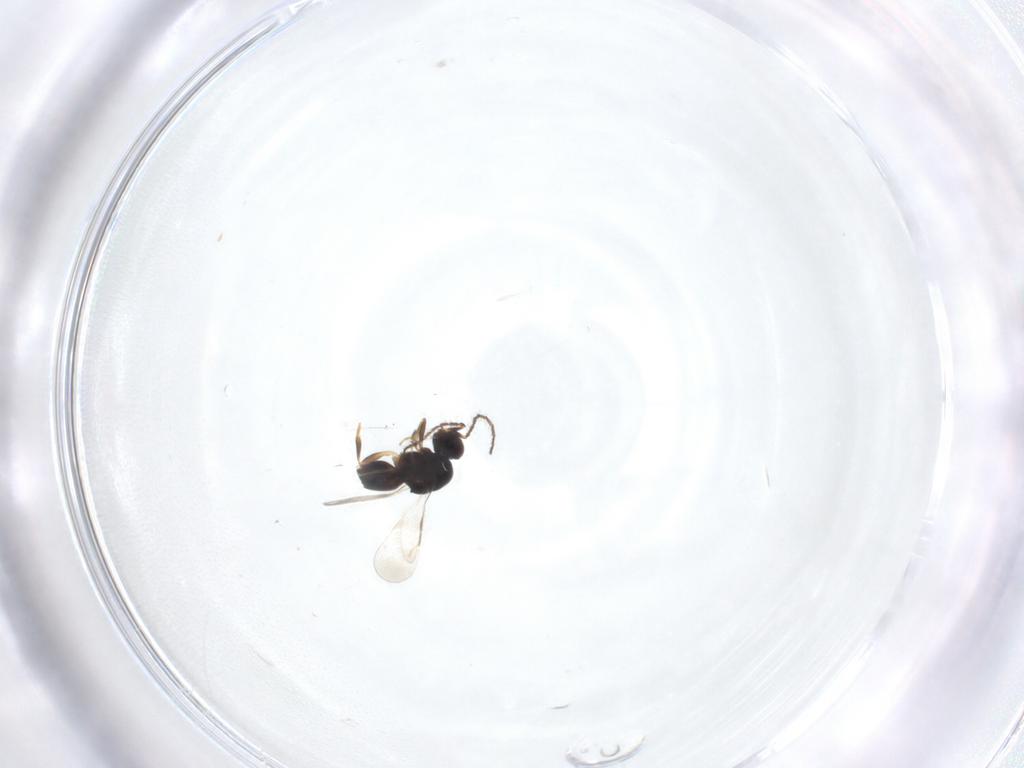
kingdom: Animalia
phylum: Arthropoda
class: Insecta
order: Hymenoptera
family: Ceraphronidae
